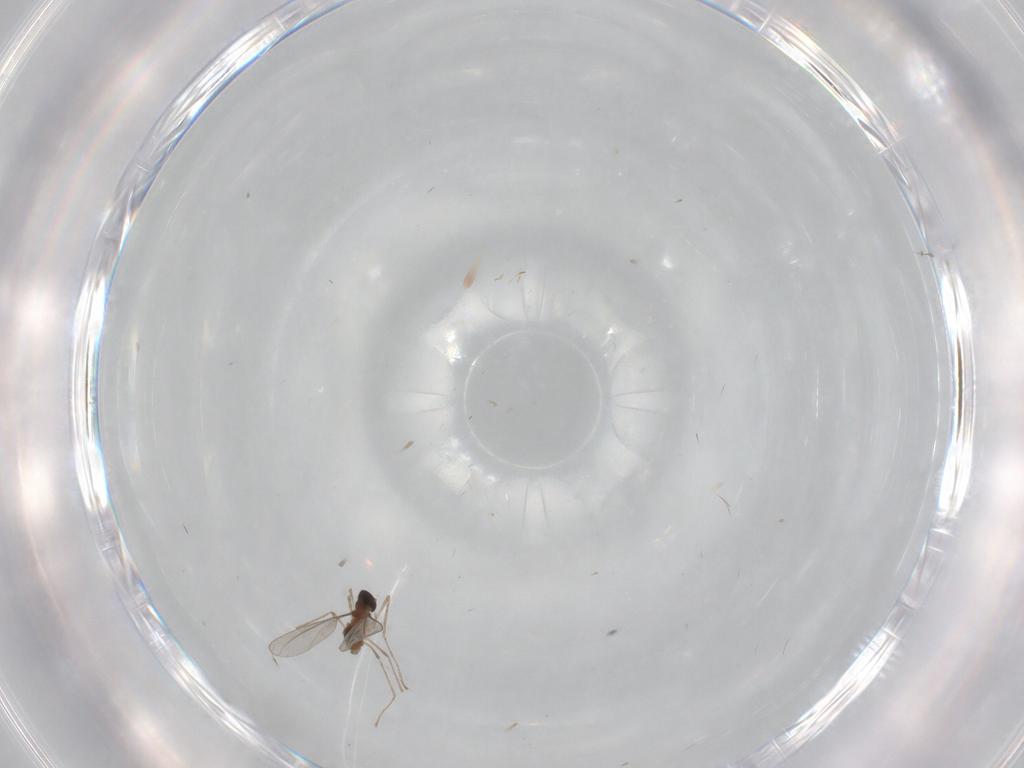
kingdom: Animalia
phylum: Arthropoda
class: Insecta
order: Diptera
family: Cecidomyiidae
